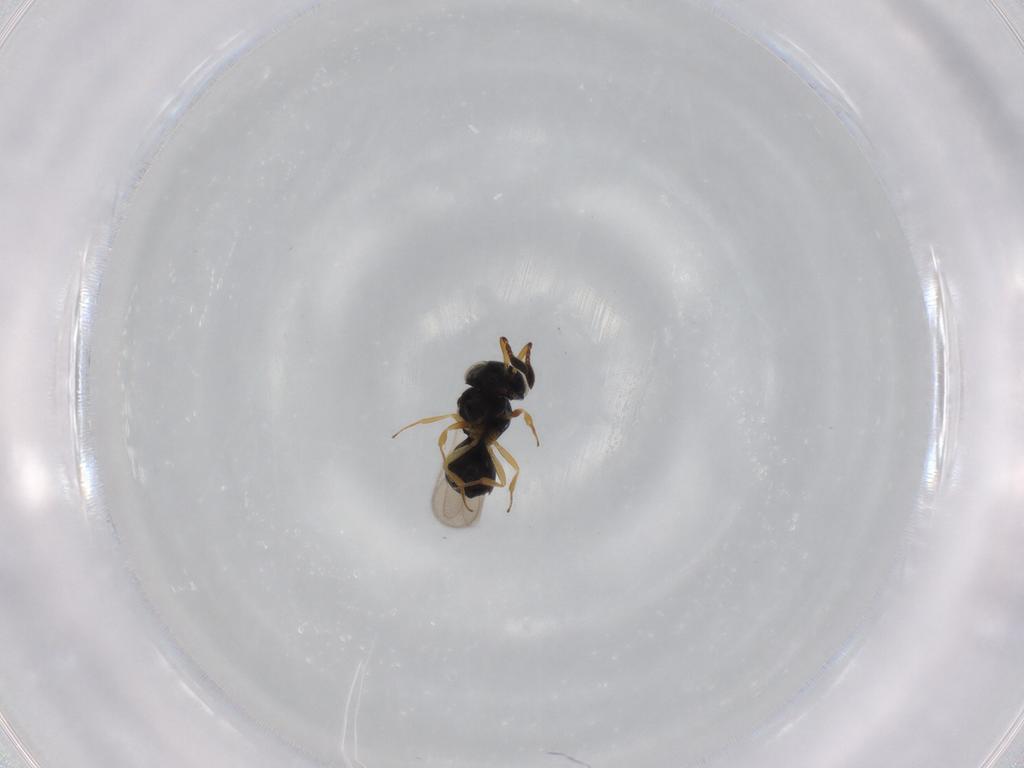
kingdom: Animalia
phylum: Arthropoda
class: Insecta
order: Hymenoptera
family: Scelionidae
